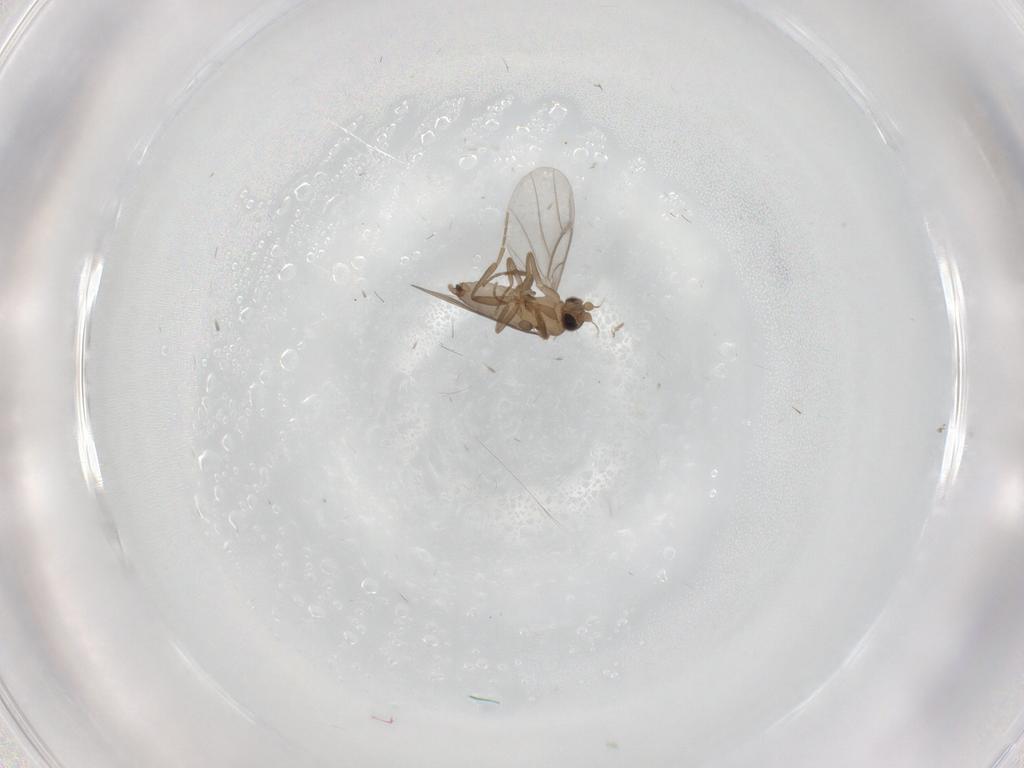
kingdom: Animalia
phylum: Arthropoda
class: Insecta
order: Diptera
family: Phoridae
